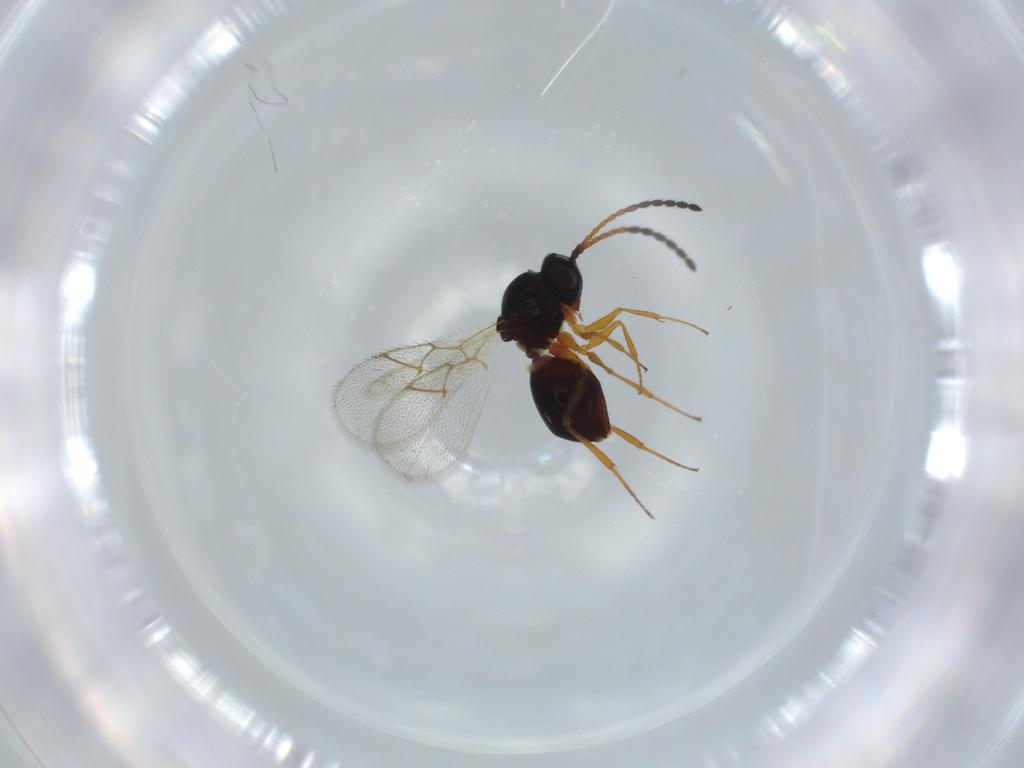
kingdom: Animalia
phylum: Arthropoda
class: Insecta
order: Hymenoptera
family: Figitidae
